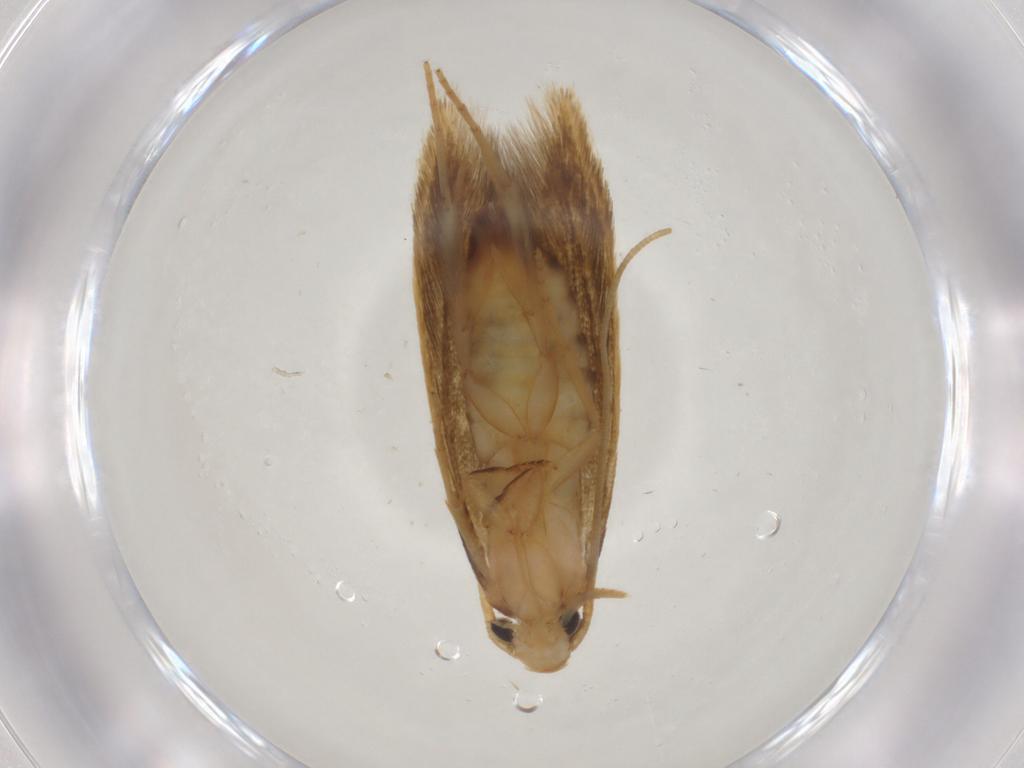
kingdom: Animalia
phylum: Arthropoda
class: Insecta
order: Lepidoptera
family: Tineidae
